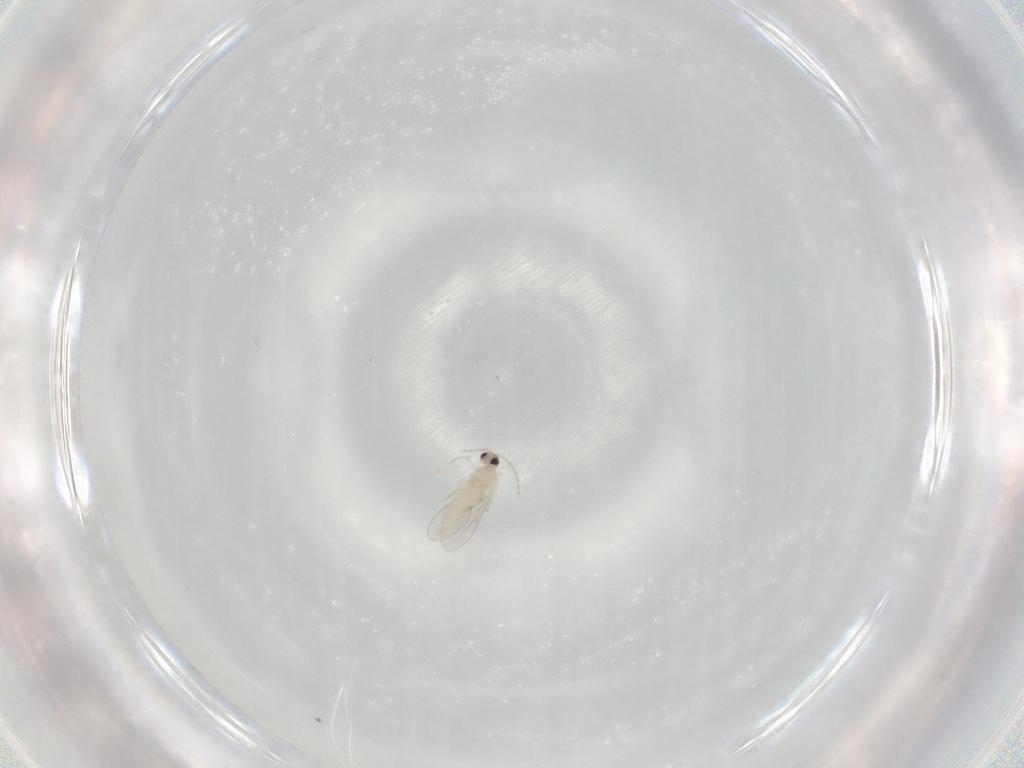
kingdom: Animalia
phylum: Arthropoda
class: Insecta
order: Diptera
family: Cecidomyiidae
